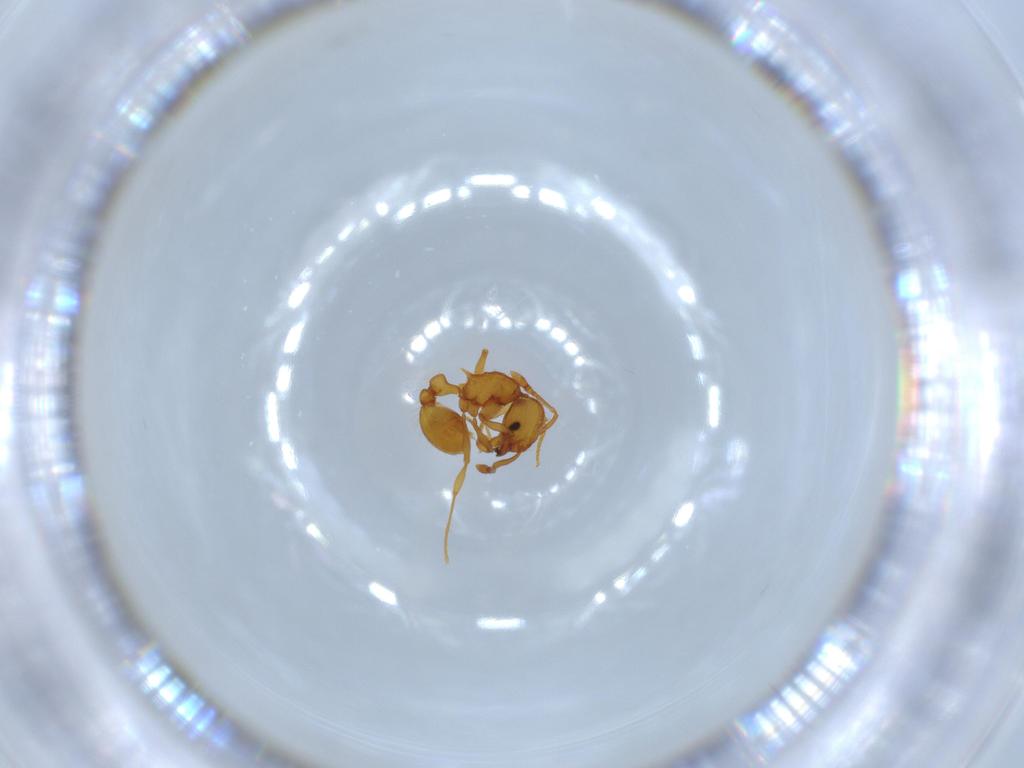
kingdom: Animalia
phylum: Arthropoda
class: Insecta
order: Hymenoptera
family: Formicidae
